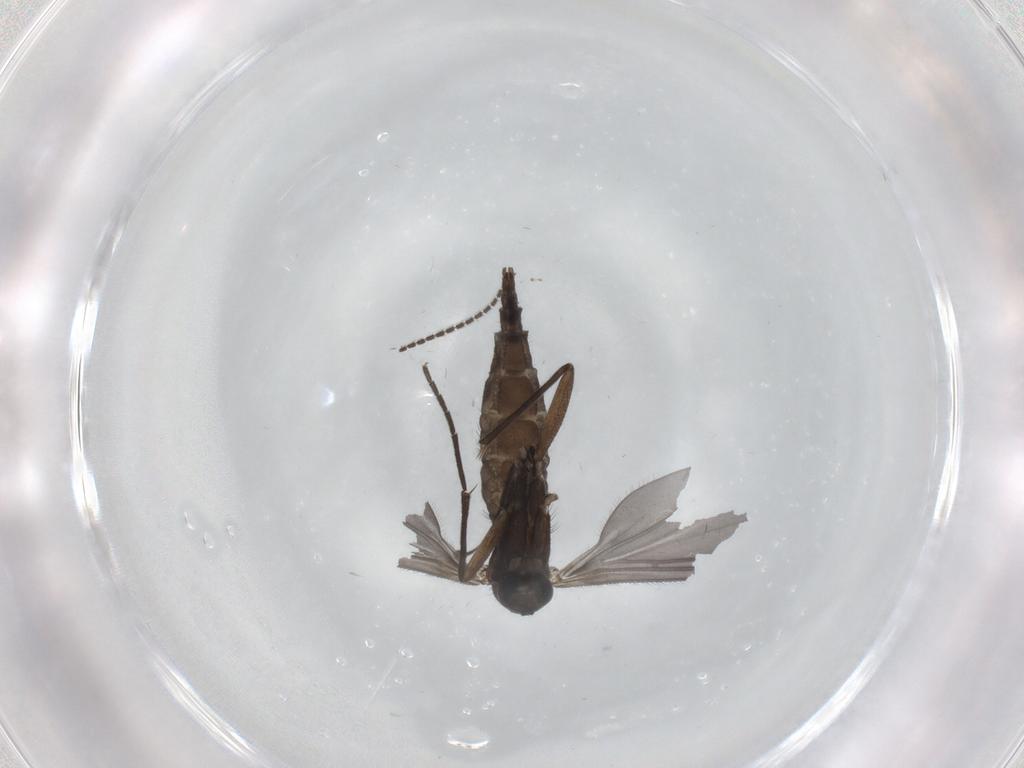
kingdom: Animalia
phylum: Arthropoda
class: Insecta
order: Diptera
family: Sciaridae
